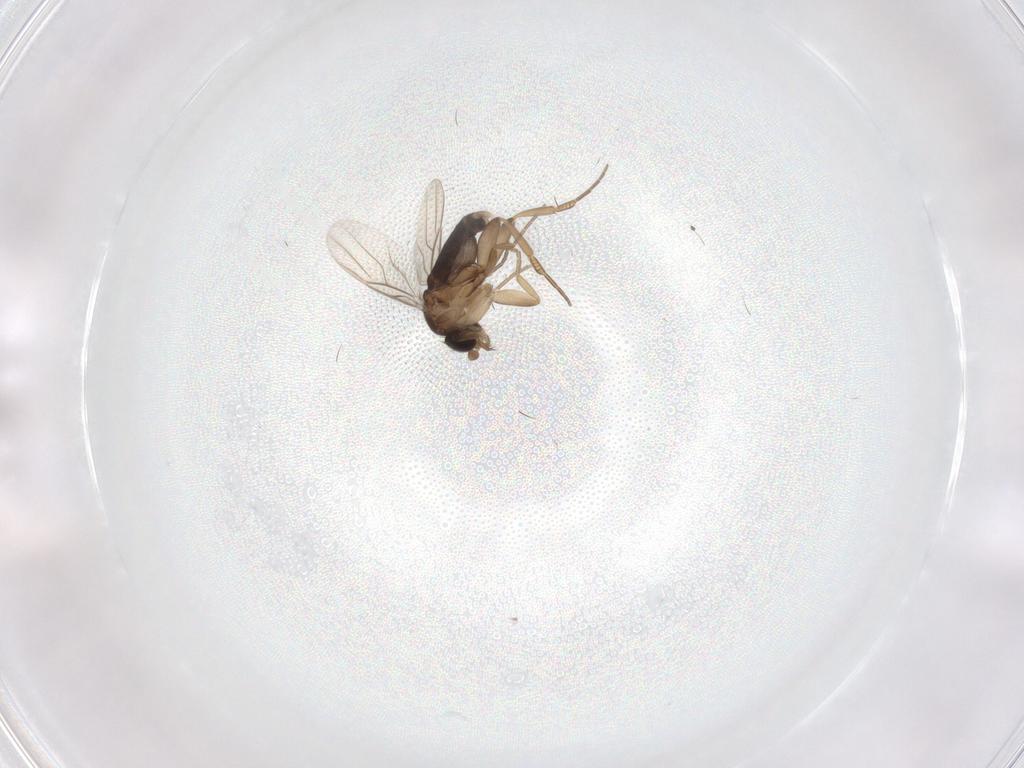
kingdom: Animalia
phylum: Arthropoda
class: Insecta
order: Diptera
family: Phoridae
